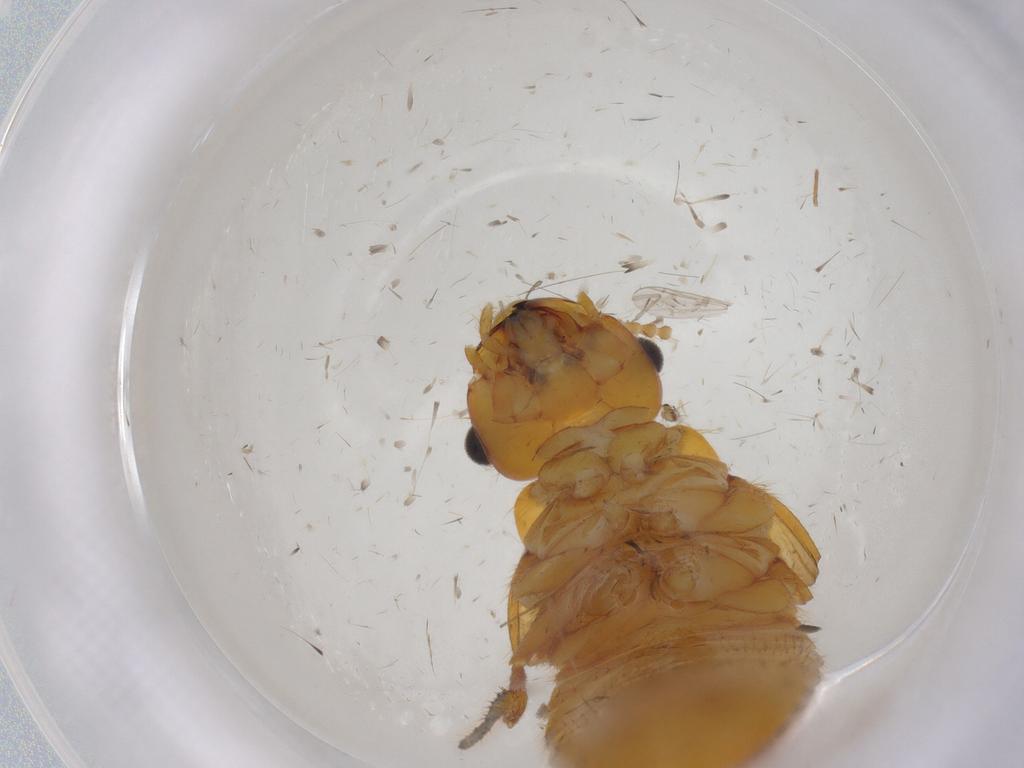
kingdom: Animalia
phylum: Arthropoda
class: Insecta
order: Blattodea
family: Rhinotermitidae
